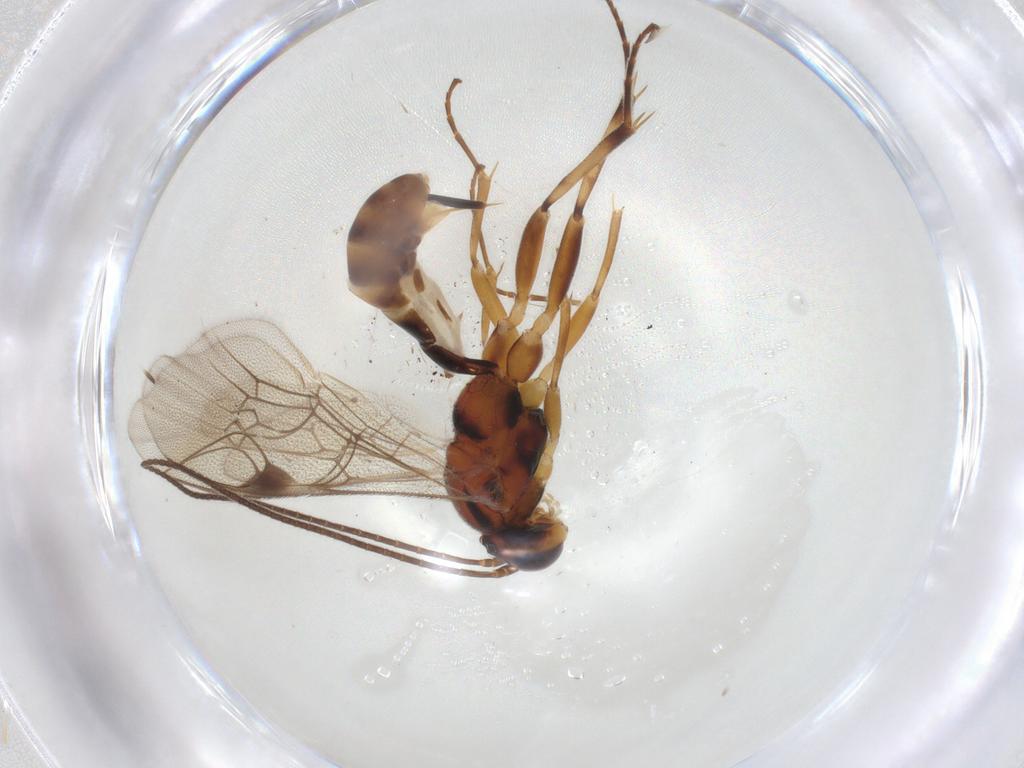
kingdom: Animalia
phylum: Arthropoda
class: Insecta
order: Hymenoptera
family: Ichneumonidae
